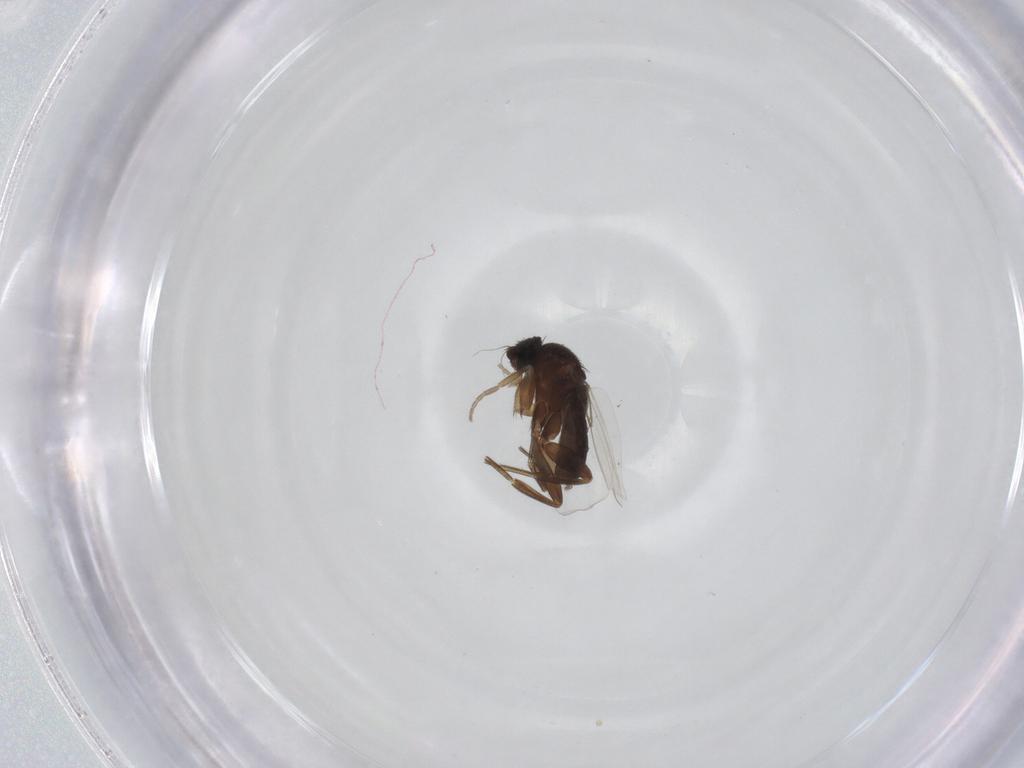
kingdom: Animalia
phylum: Arthropoda
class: Insecta
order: Diptera
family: Phoridae
